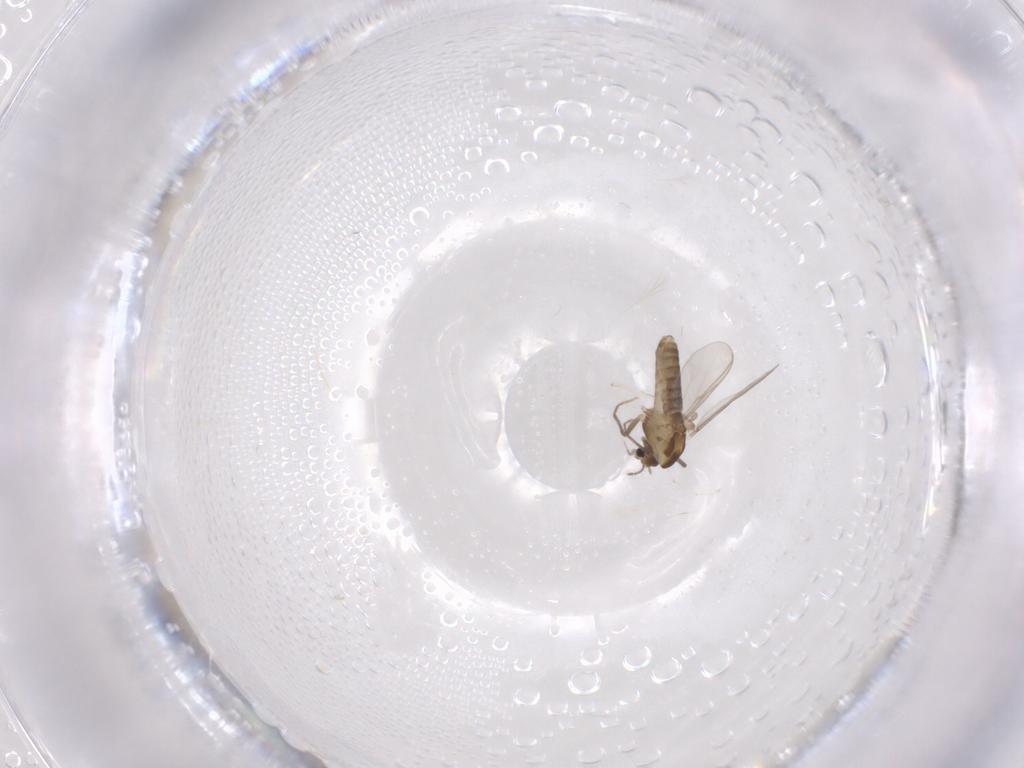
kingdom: Animalia
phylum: Arthropoda
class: Insecta
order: Diptera
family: Chironomidae
